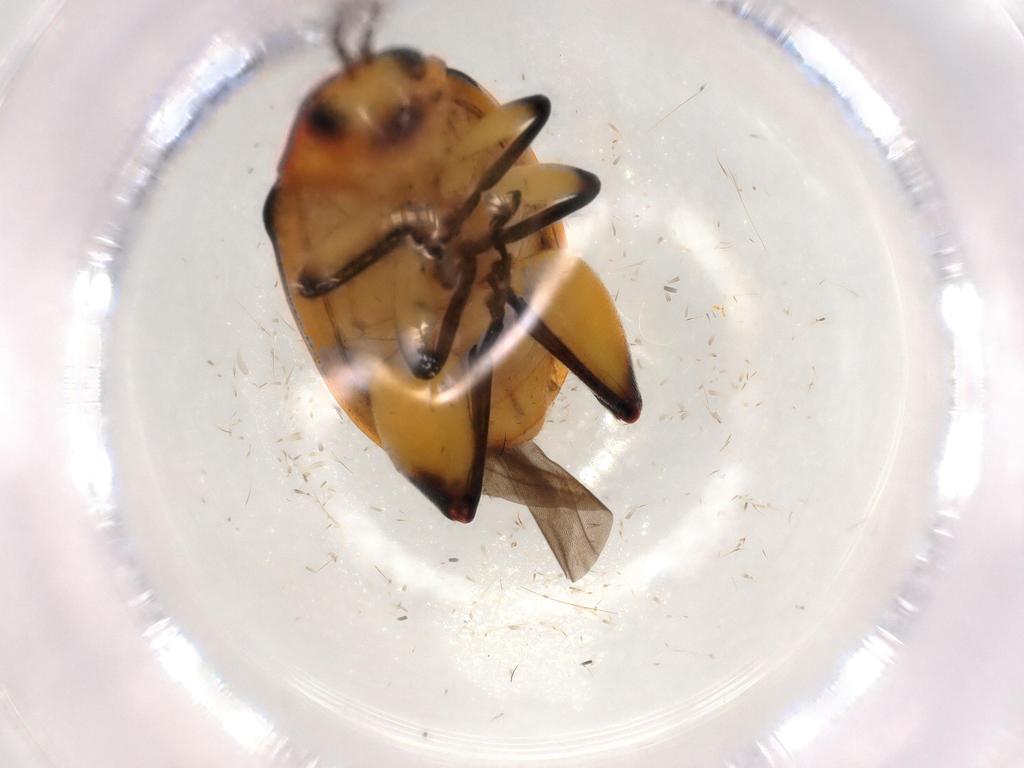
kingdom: Animalia
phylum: Arthropoda
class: Insecta
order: Coleoptera
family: Chrysomelidae
